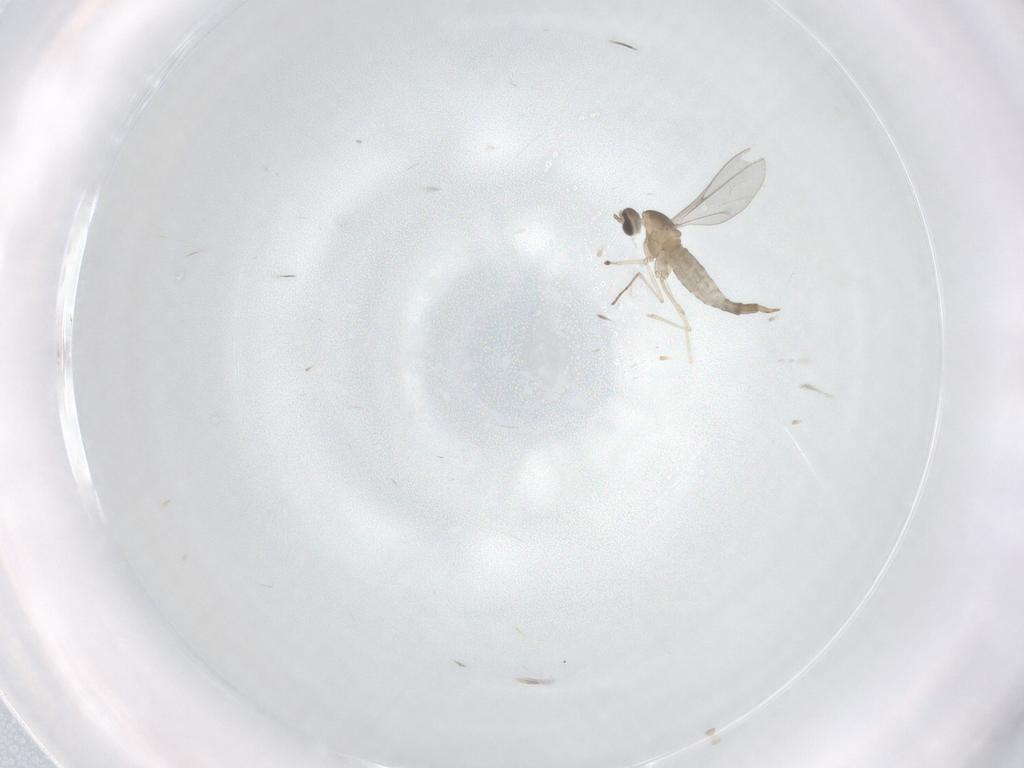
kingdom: Animalia
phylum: Arthropoda
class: Insecta
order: Diptera
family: Cecidomyiidae
